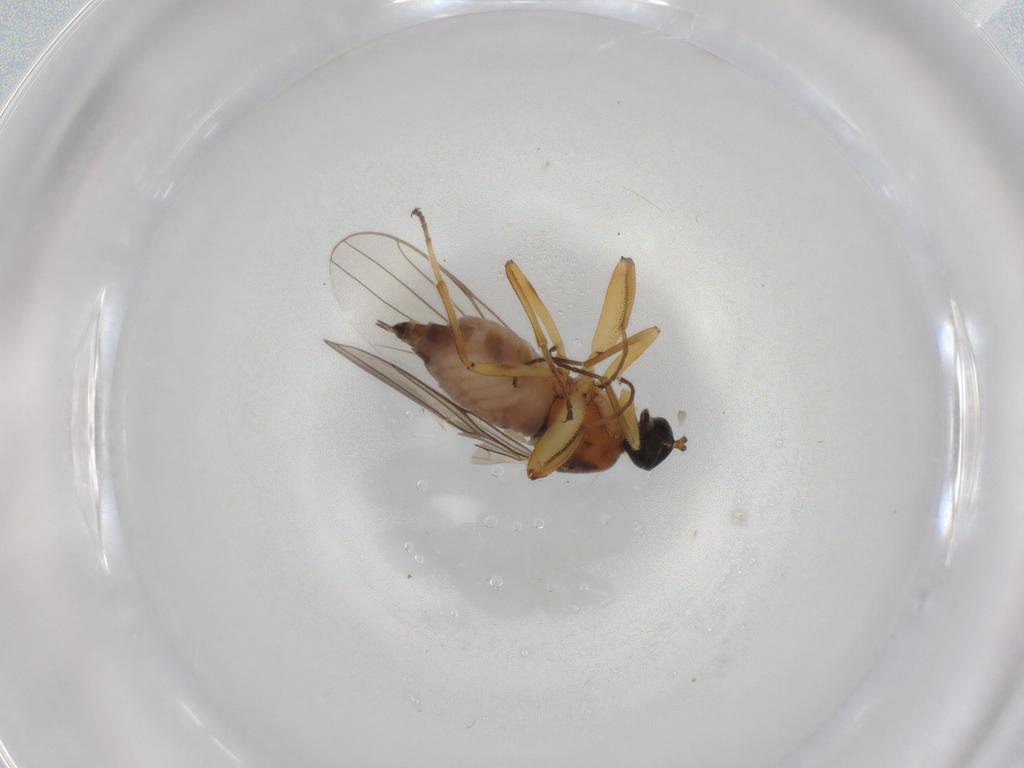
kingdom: Animalia
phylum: Arthropoda
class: Insecta
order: Diptera
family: Hybotidae
